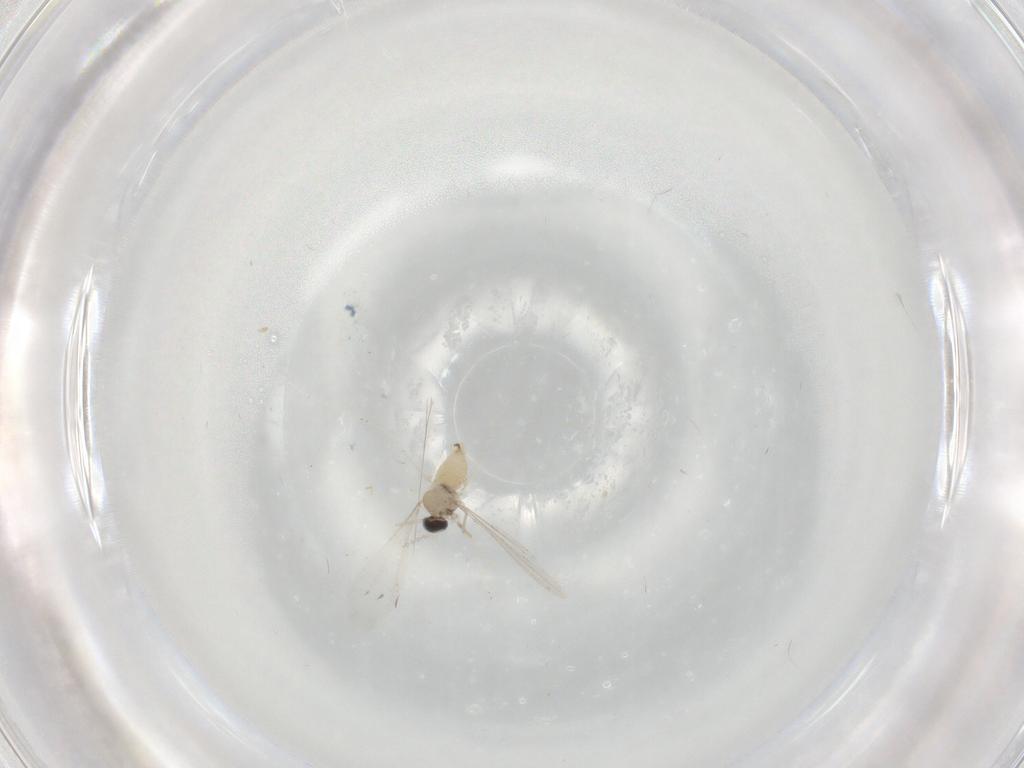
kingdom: Animalia
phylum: Arthropoda
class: Insecta
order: Diptera
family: Cecidomyiidae
